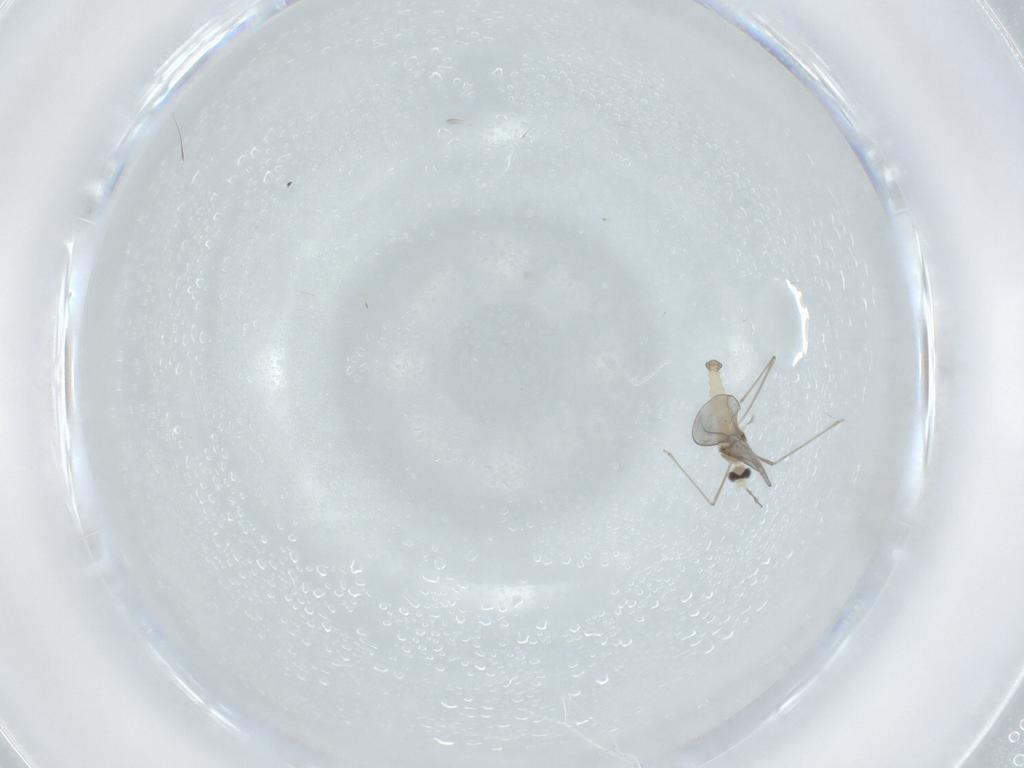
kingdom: Animalia
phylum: Arthropoda
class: Insecta
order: Diptera
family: Cecidomyiidae
